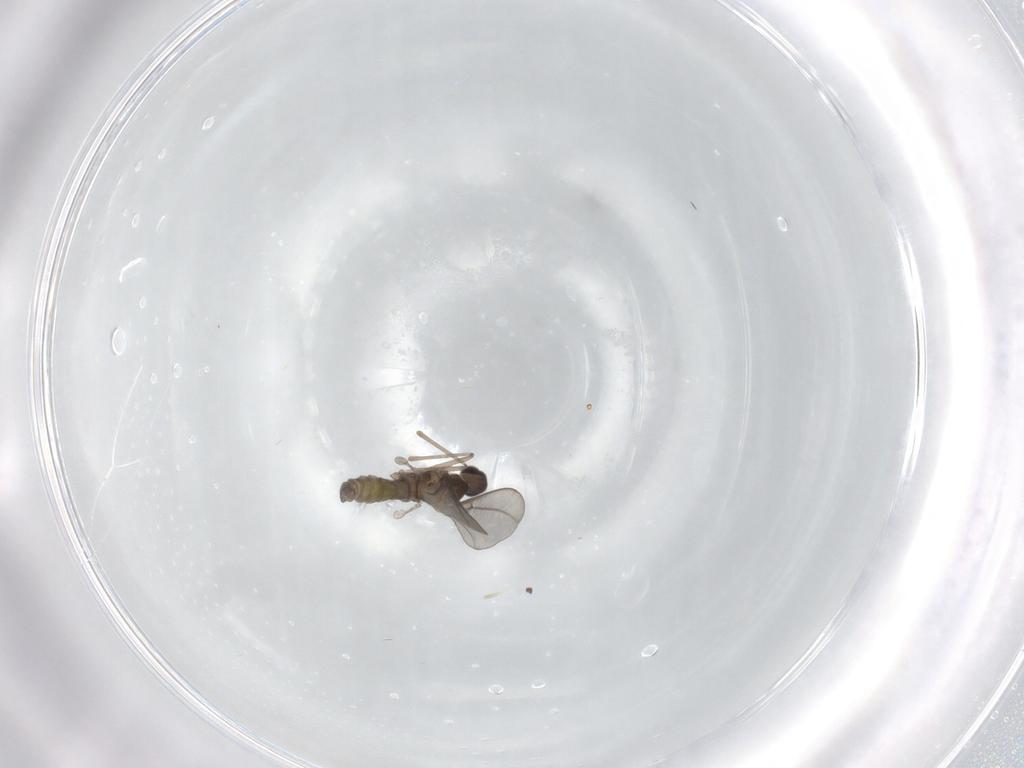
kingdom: Animalia
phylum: Arthropoda
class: Insecta
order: Diptera
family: Cecidomyiidae
